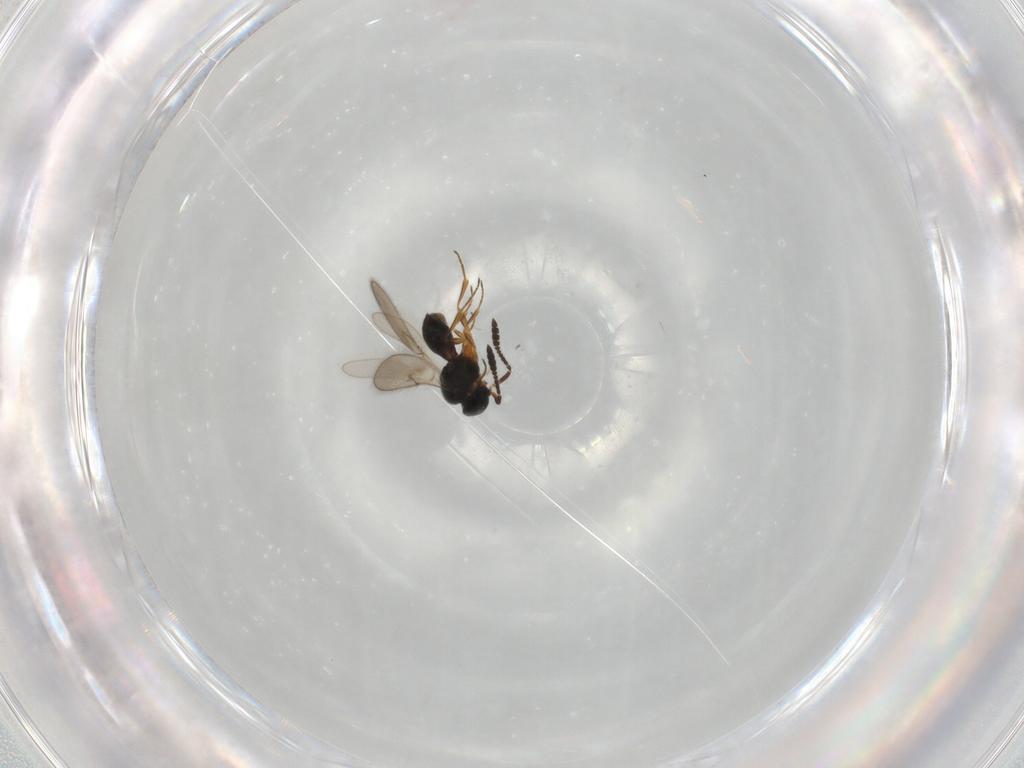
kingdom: Animalia
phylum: Arthropoda
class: Insecta
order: Hymenoptera
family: Scelionidae
